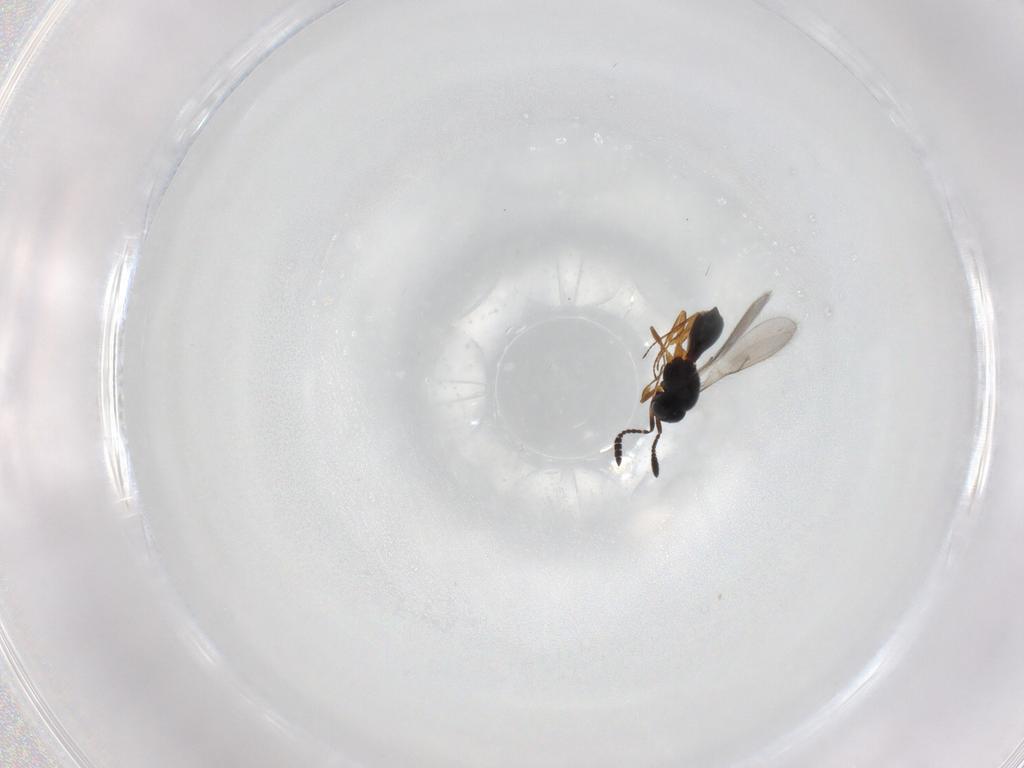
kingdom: Animalia
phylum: Arthropoda
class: Insecta
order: Hymenoptera
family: Scelionidae
